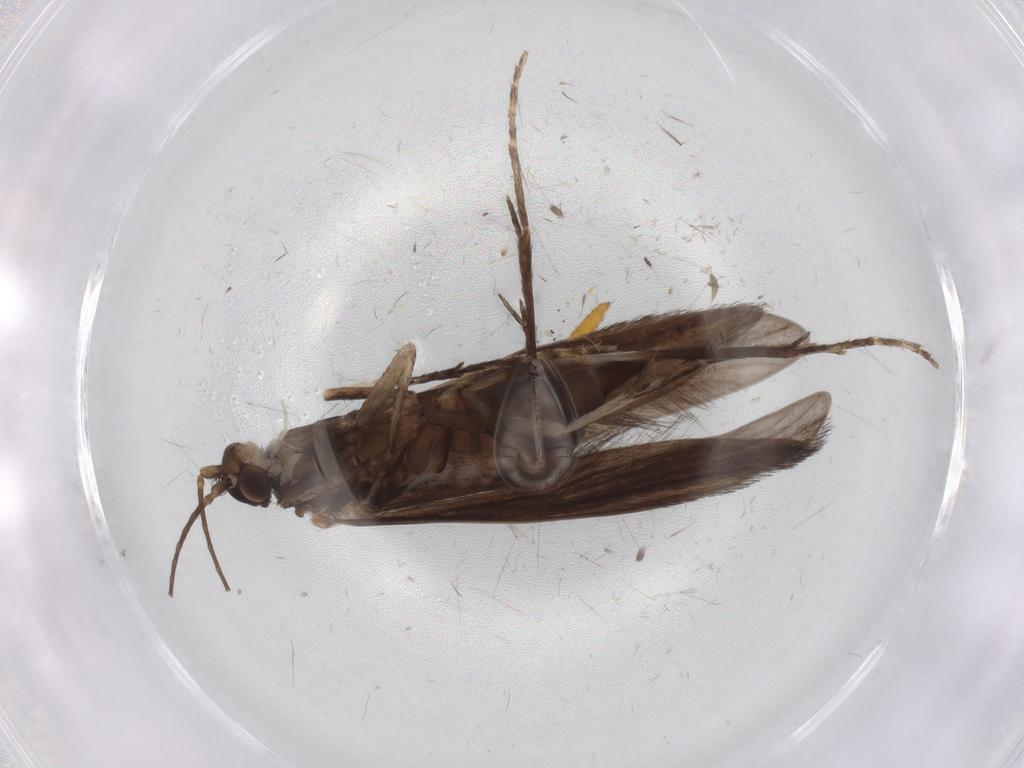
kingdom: Animalia
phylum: Arthropoda
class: Insecta
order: Trichoptera
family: Xiphocentronidae
